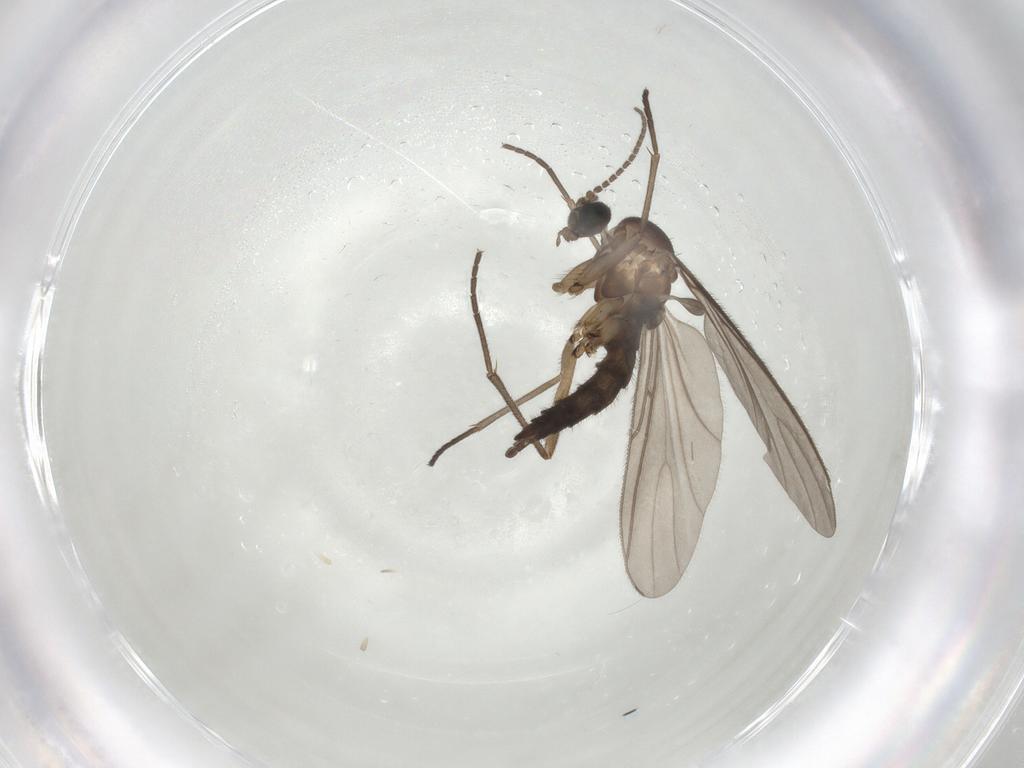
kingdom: Animalia
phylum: Arthropoda
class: Insecta
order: Diptera
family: Sciaridae
